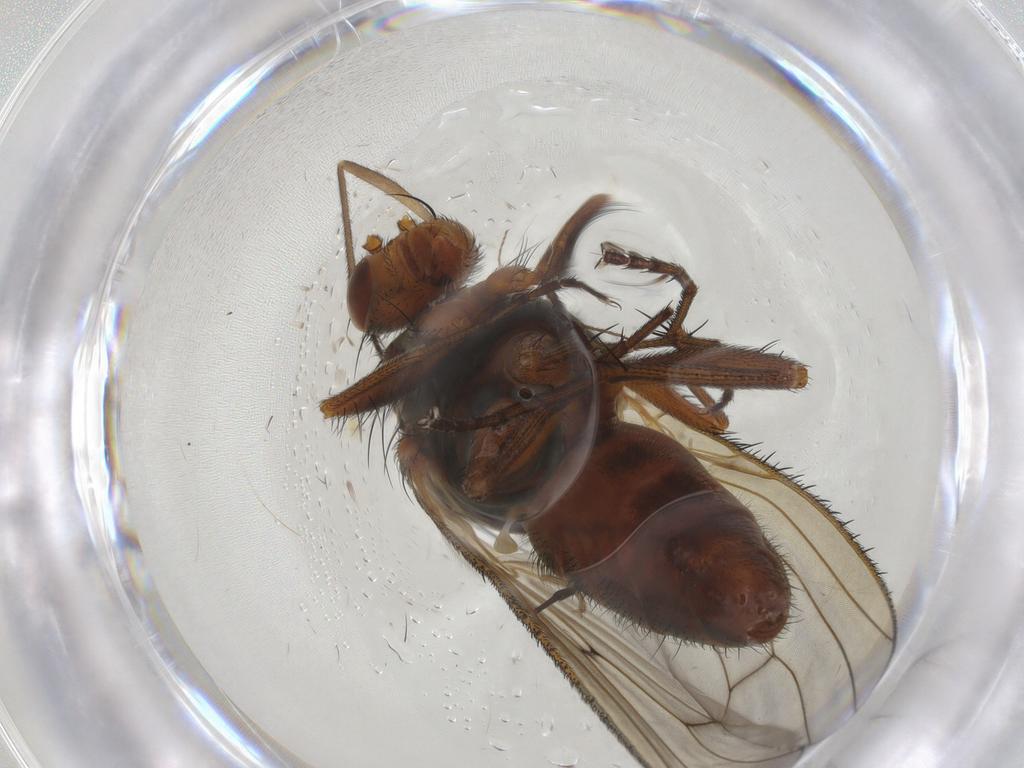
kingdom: Animalia
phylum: Arthropoda
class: Insecta
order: Diptera
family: Heleomyzidae
